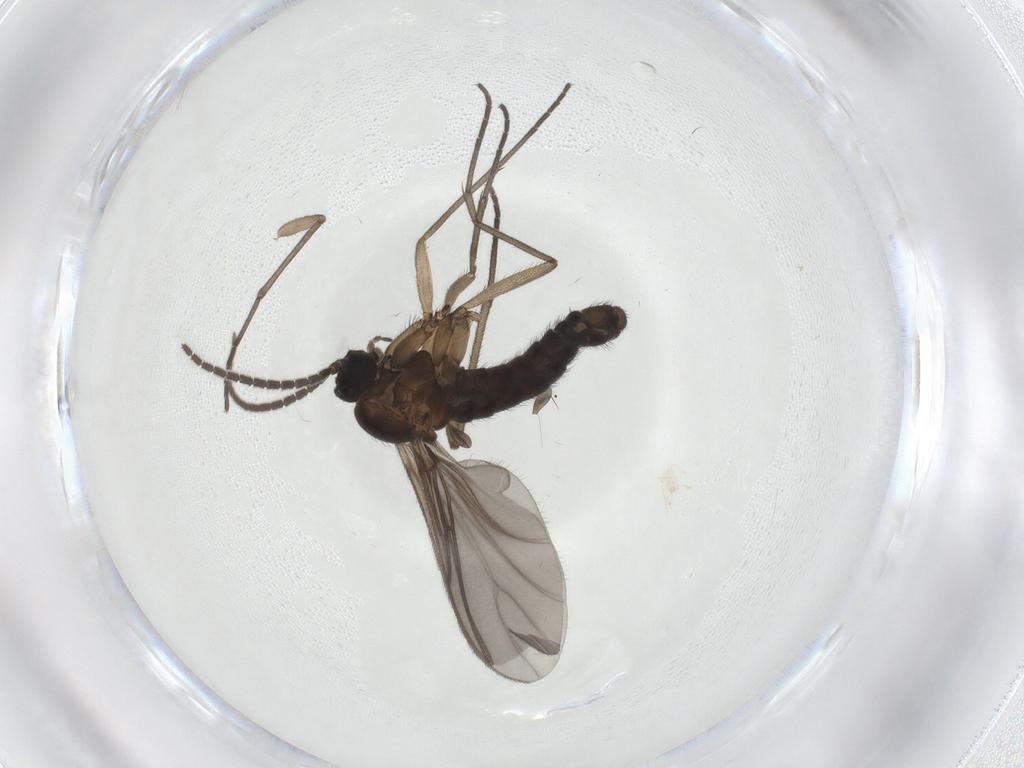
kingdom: Animalia
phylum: Arthropoda
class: Insecta
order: Diptera
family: Sciaridae
